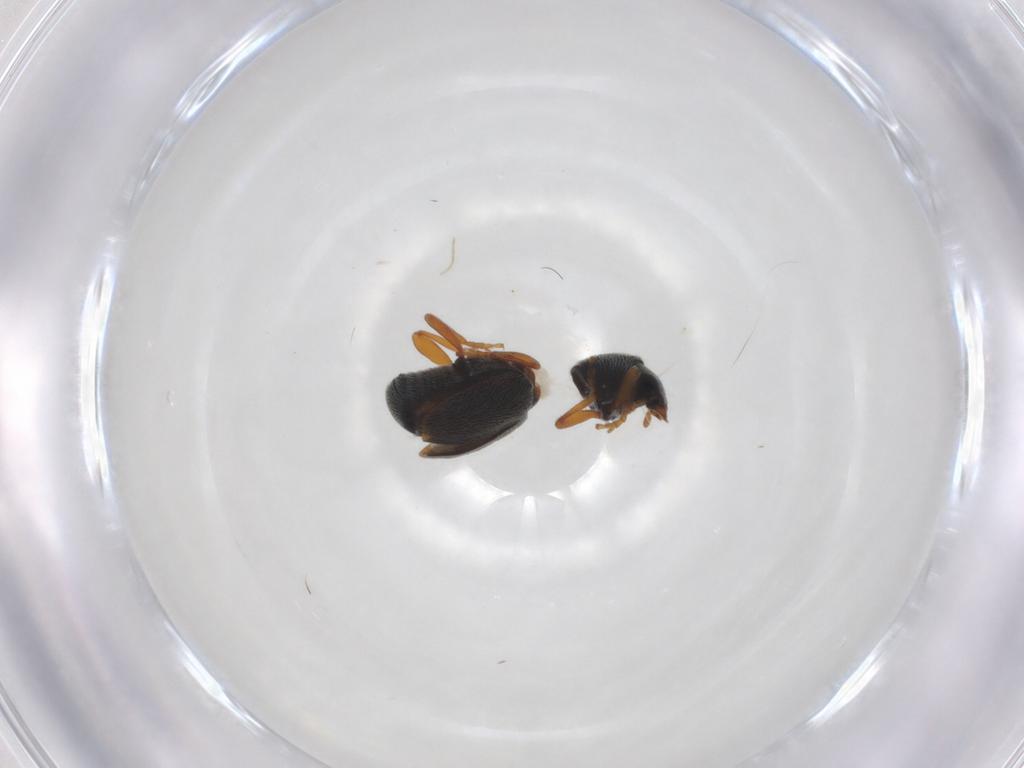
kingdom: Animalia
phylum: Arthropoda
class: Insecta
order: Coleoptera
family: Anthribidae
